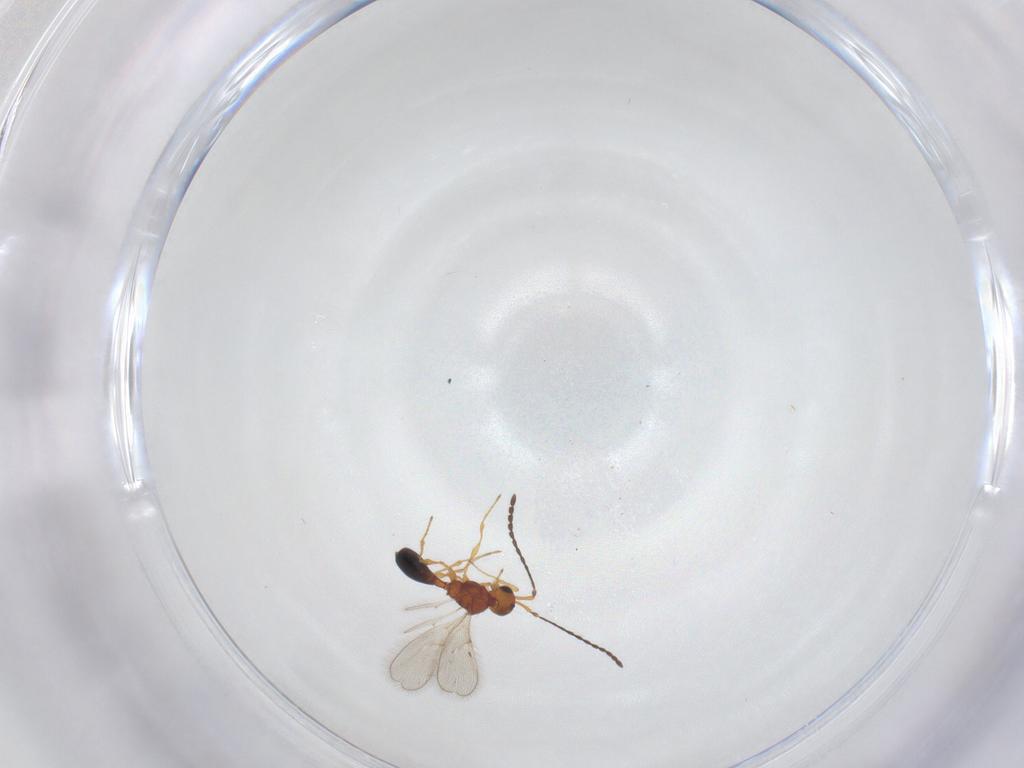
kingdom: Animalia
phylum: Arthropoda
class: Insecta
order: Hymenoptera
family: Diapriidae
